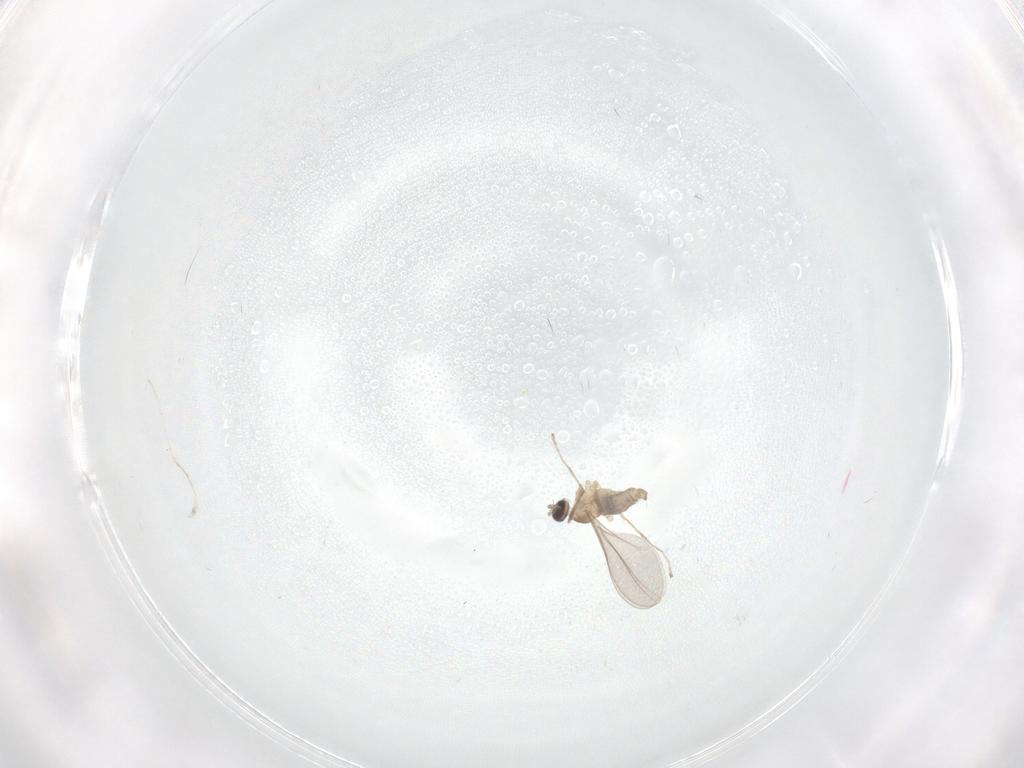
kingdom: Animalia
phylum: Arthropoda
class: Insecta
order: Diptera
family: Cecidomyiidae
